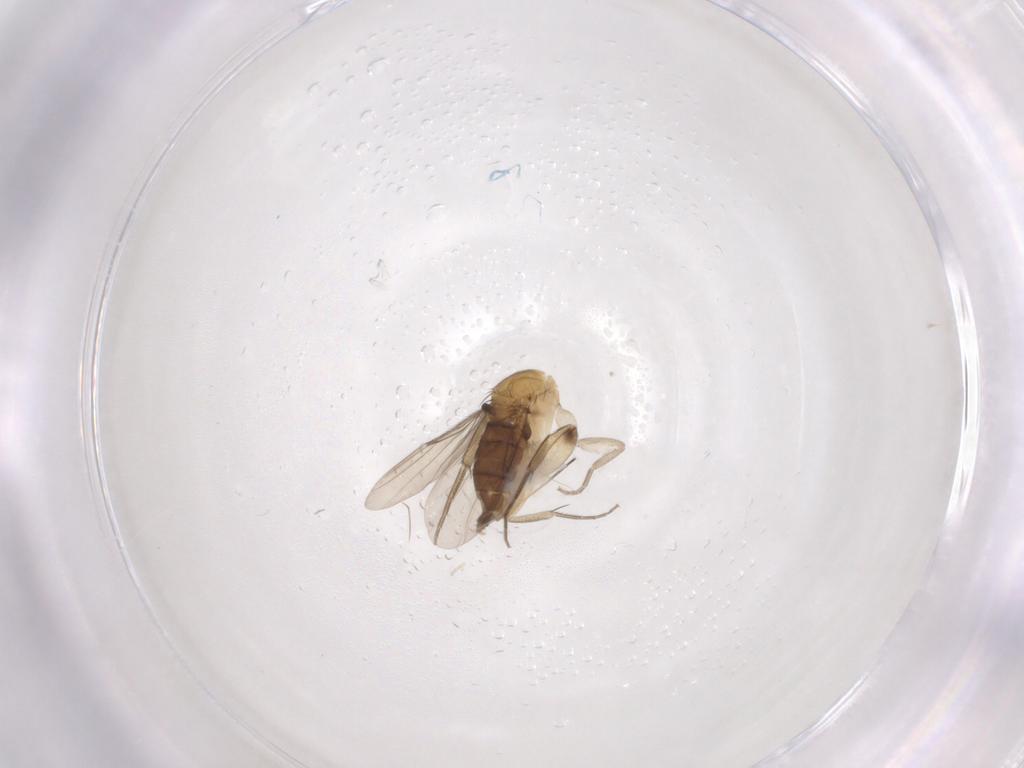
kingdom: Animalia
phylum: Arthropoda
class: Insecta
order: Diptera
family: Phoridae
